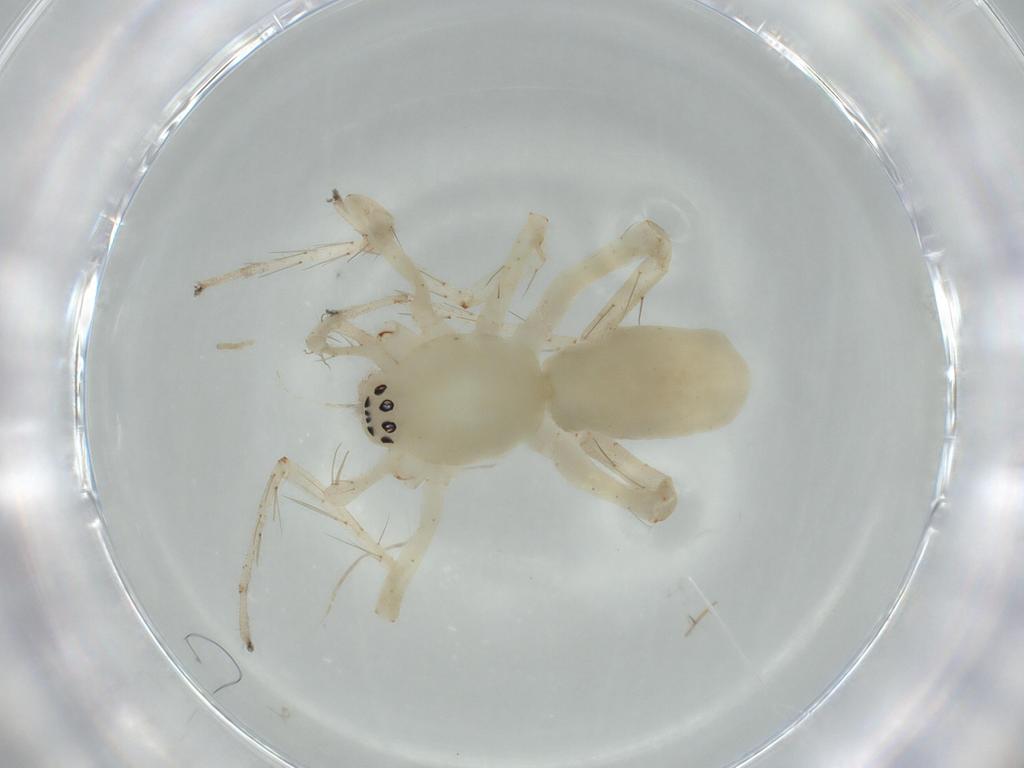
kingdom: Animalia
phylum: Arthropoda
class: Arachnida
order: Araneae
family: Anyphaenidae
